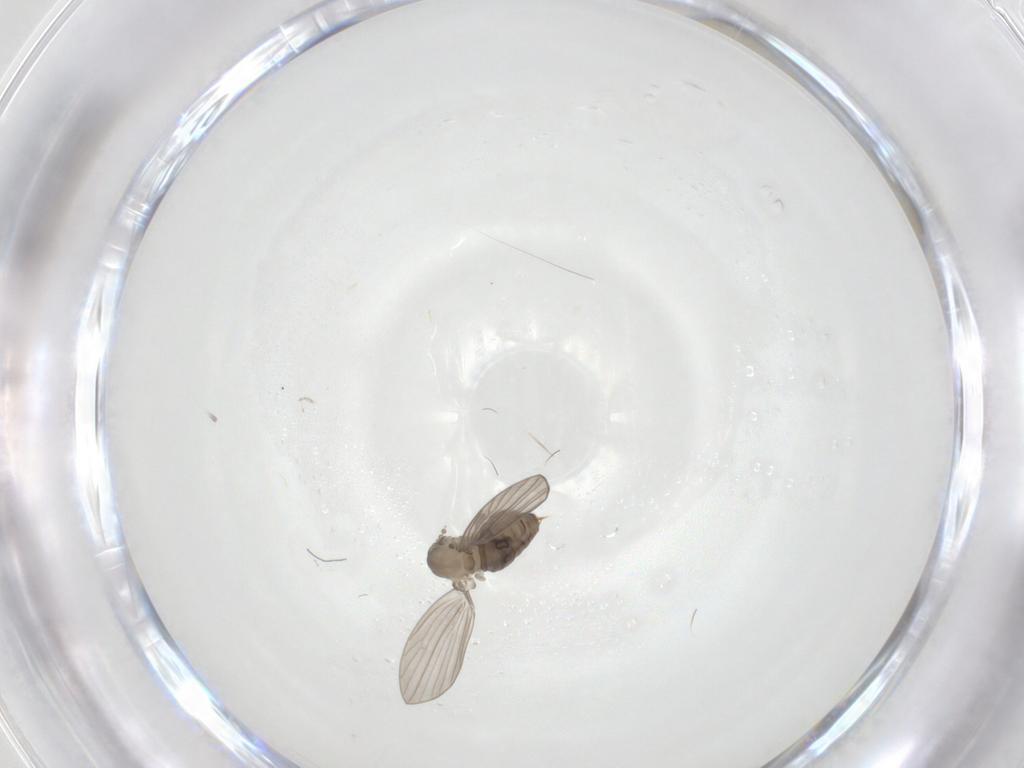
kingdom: Animalia
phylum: Arthropoda
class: Insecta
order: Diptera
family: Psychodidae
